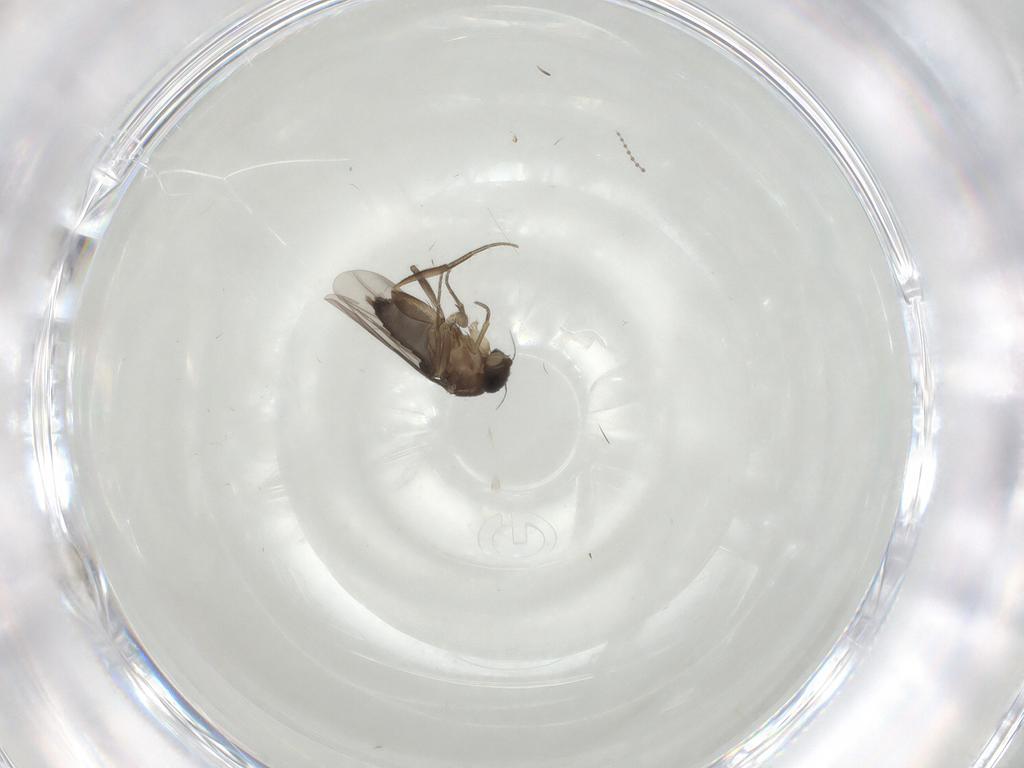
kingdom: Animalia
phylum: Arthropoda
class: Insecta
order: Diptera
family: Phoridae
